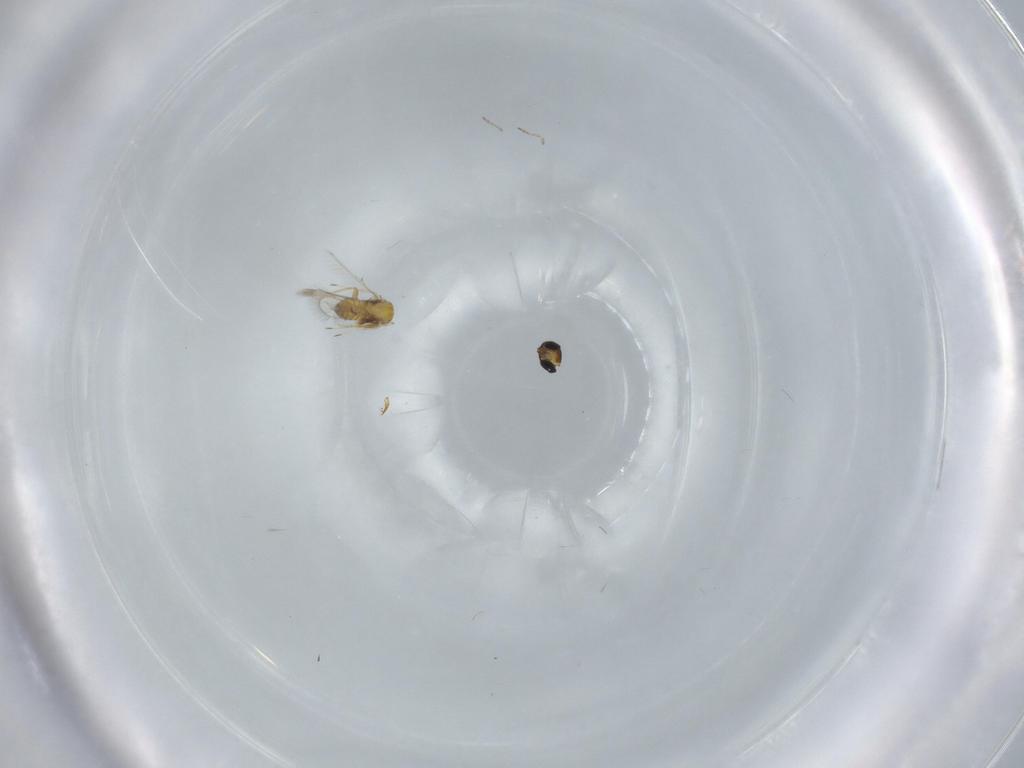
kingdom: Animalia
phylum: Arthropoda
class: Insecta
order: Hymenoptera
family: Trichogrammatidae
